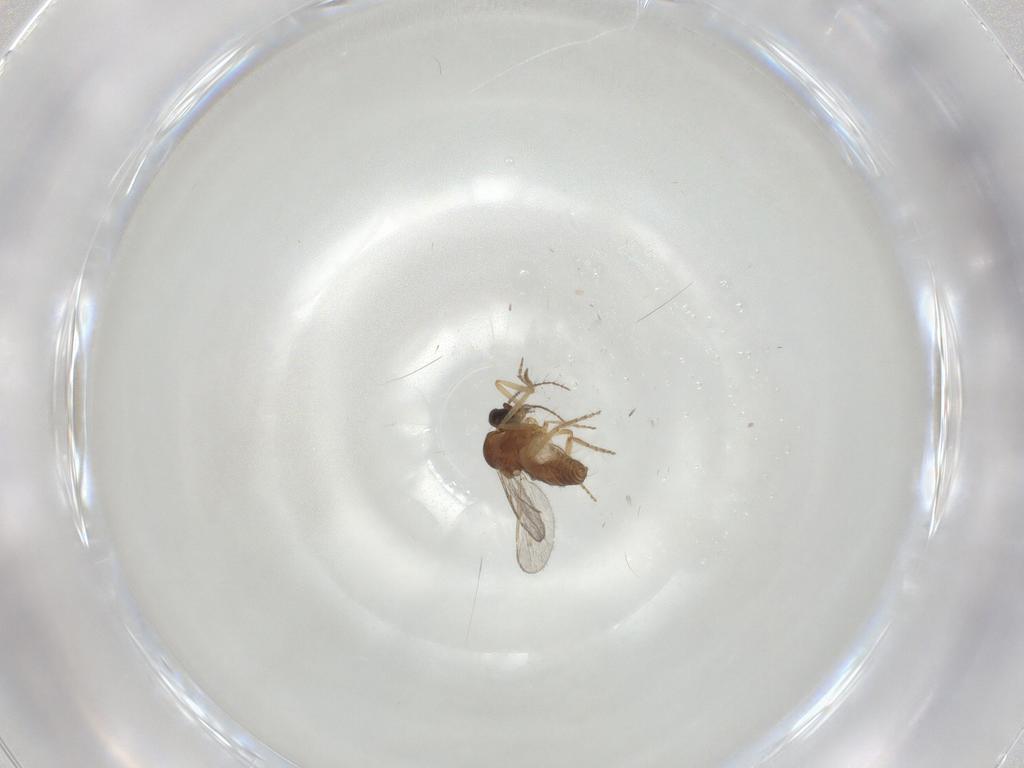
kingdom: Animalia
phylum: Arthropoda
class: Insecta
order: Diptera
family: Ceratopogonidae
